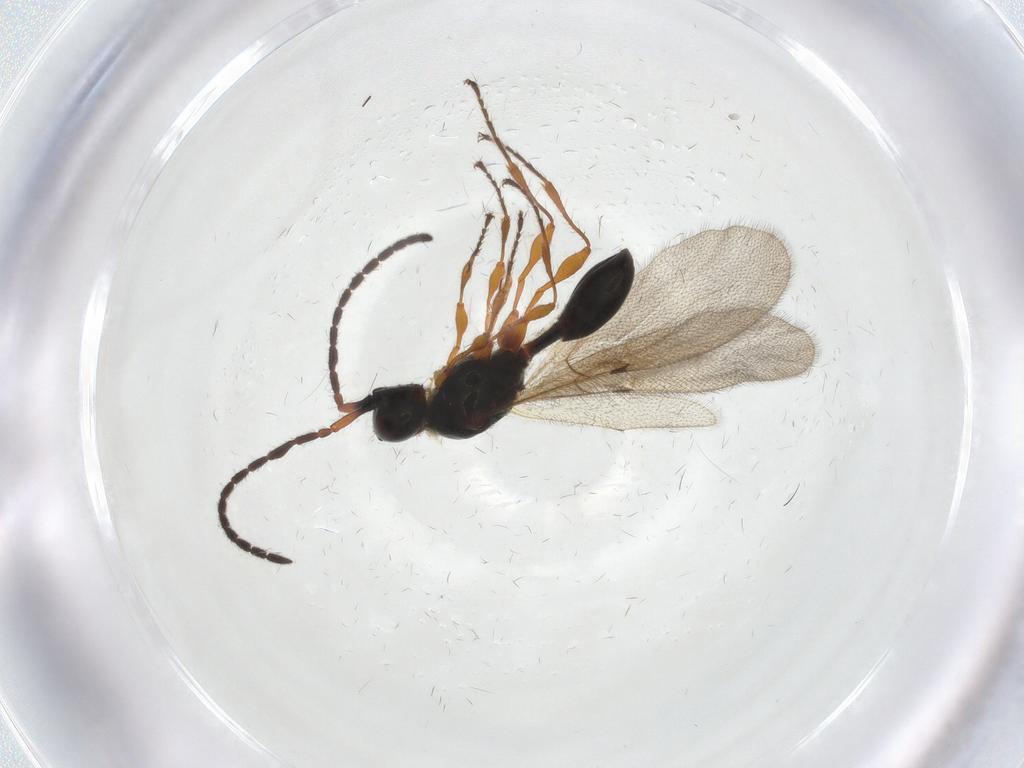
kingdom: Animalia
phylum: Arthropoda
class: Insecta
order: Hymenoptera
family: Diapriidae
